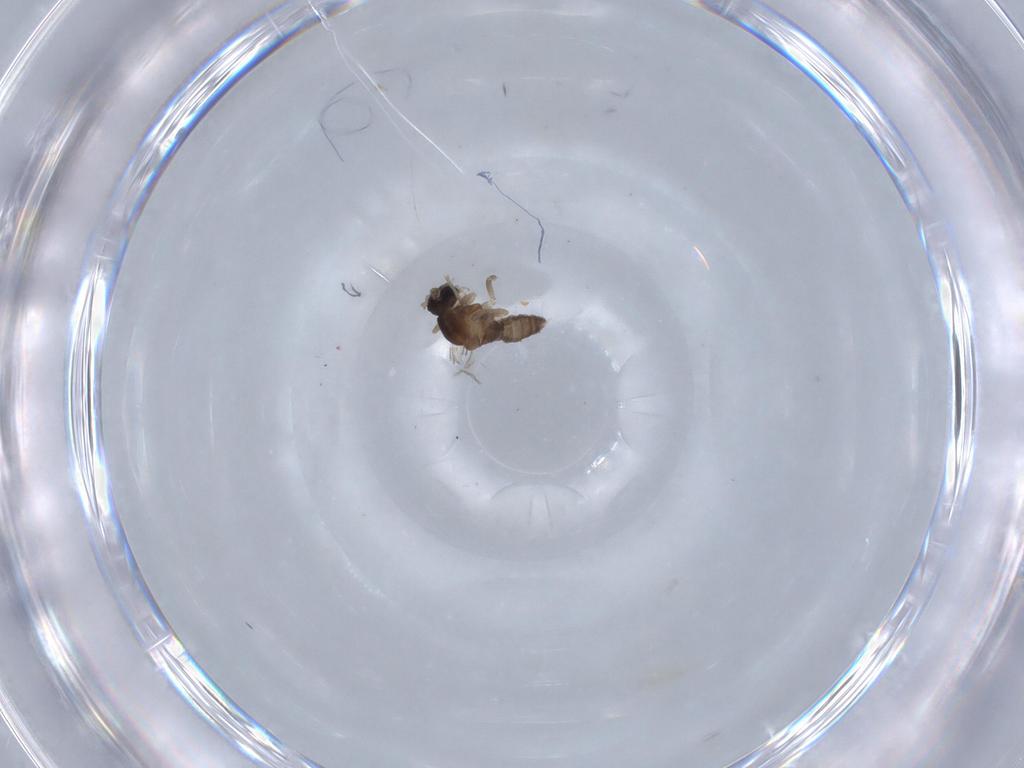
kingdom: Animalia
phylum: Arthropoda
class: Insecta
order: Diptera
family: Cecidomyiidae
